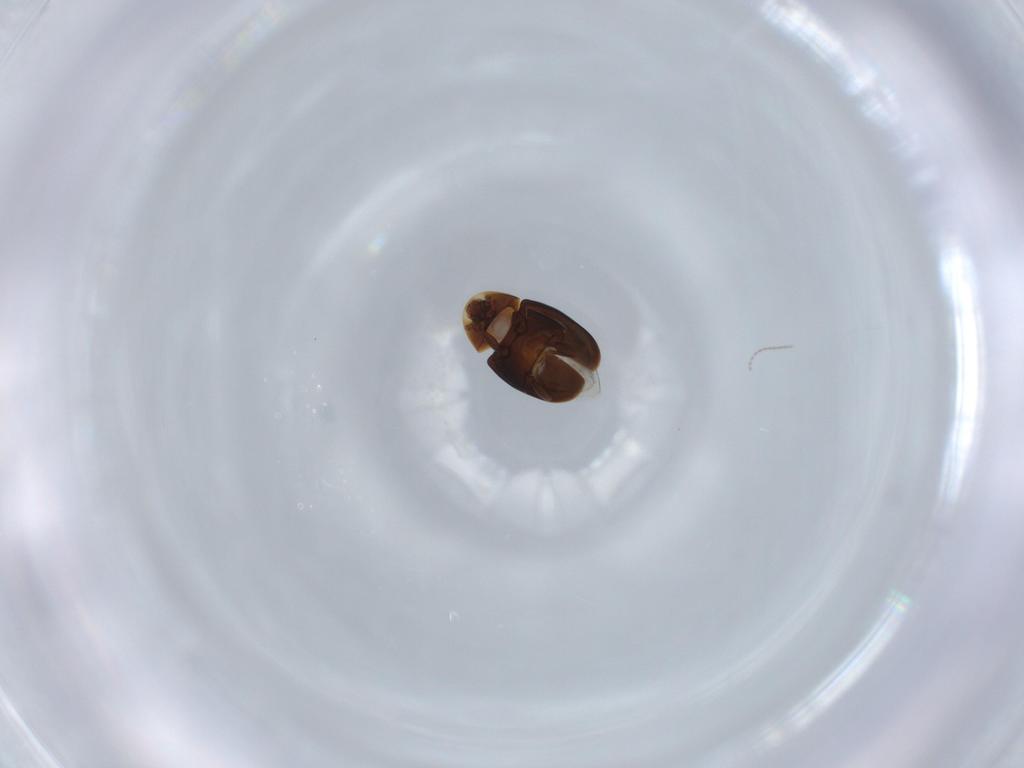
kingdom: Animalia
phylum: Arthropoda
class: Insecta
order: Coleoptera
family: Corylophidae
